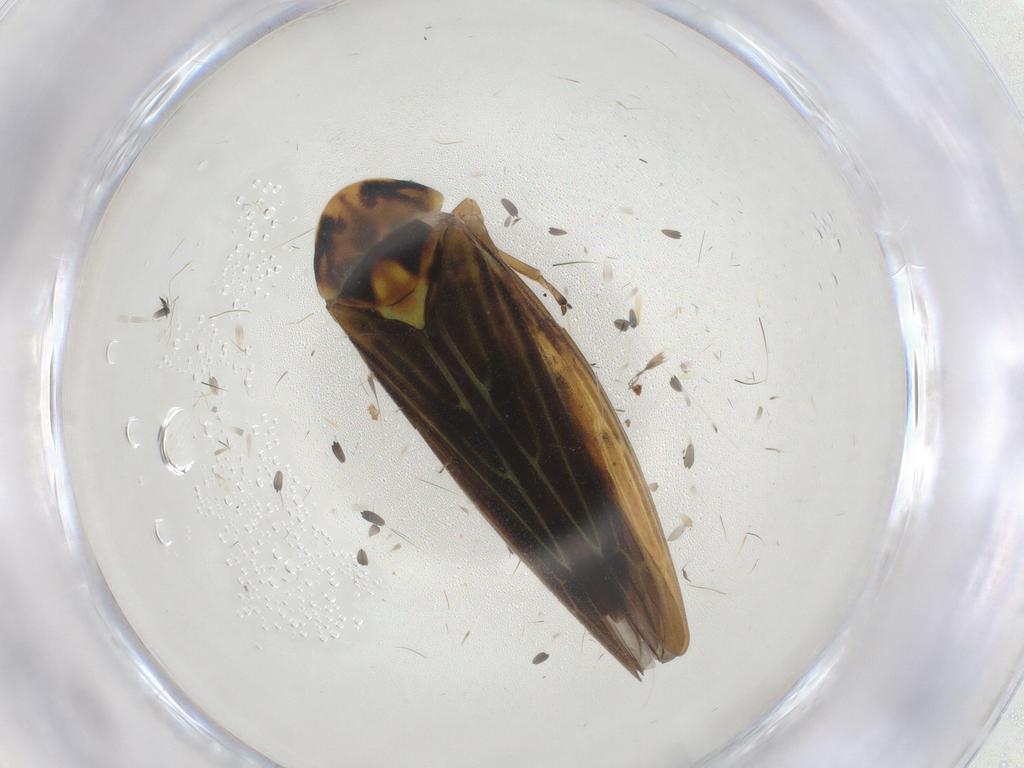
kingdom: Animalia
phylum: Arthropoda
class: Insecta
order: Hemiptera
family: Cicadellidae
